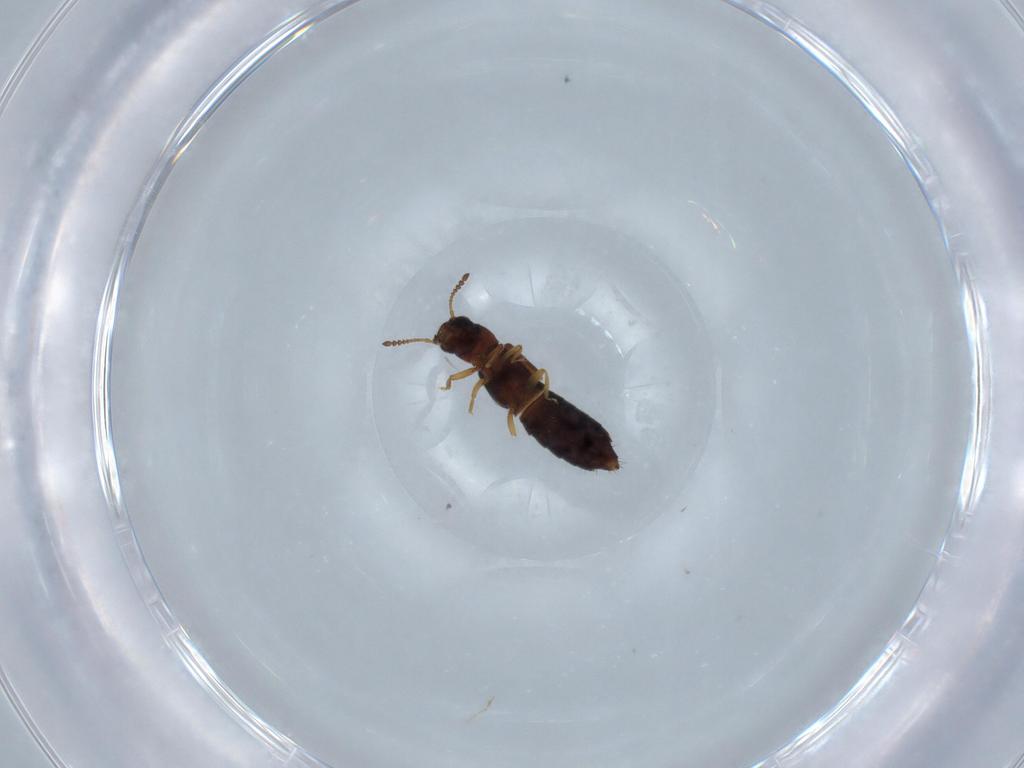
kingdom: Animalia
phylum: Arthropoda
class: Insecta
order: Coleoptera
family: Staphylinidae
